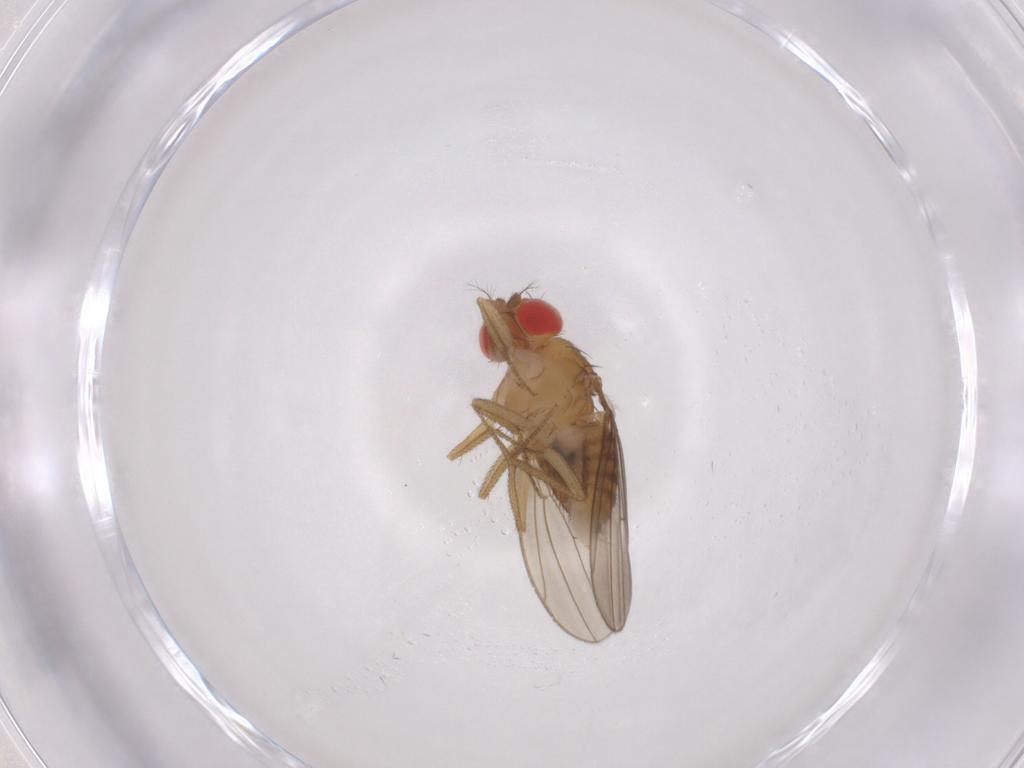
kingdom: Animalia
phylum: Arthropoda
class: Insecta
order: Diptera
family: Drosophilidae
